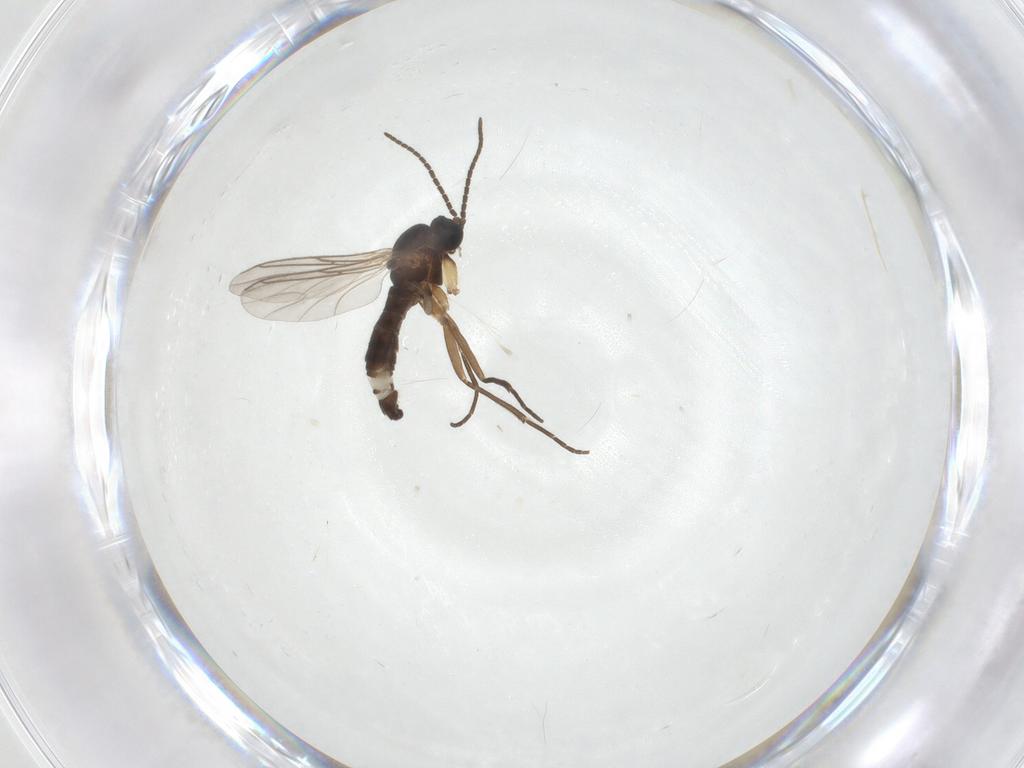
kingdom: Animalia
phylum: Arthropoda
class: Insecta
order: Diptera
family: Sciaridae
